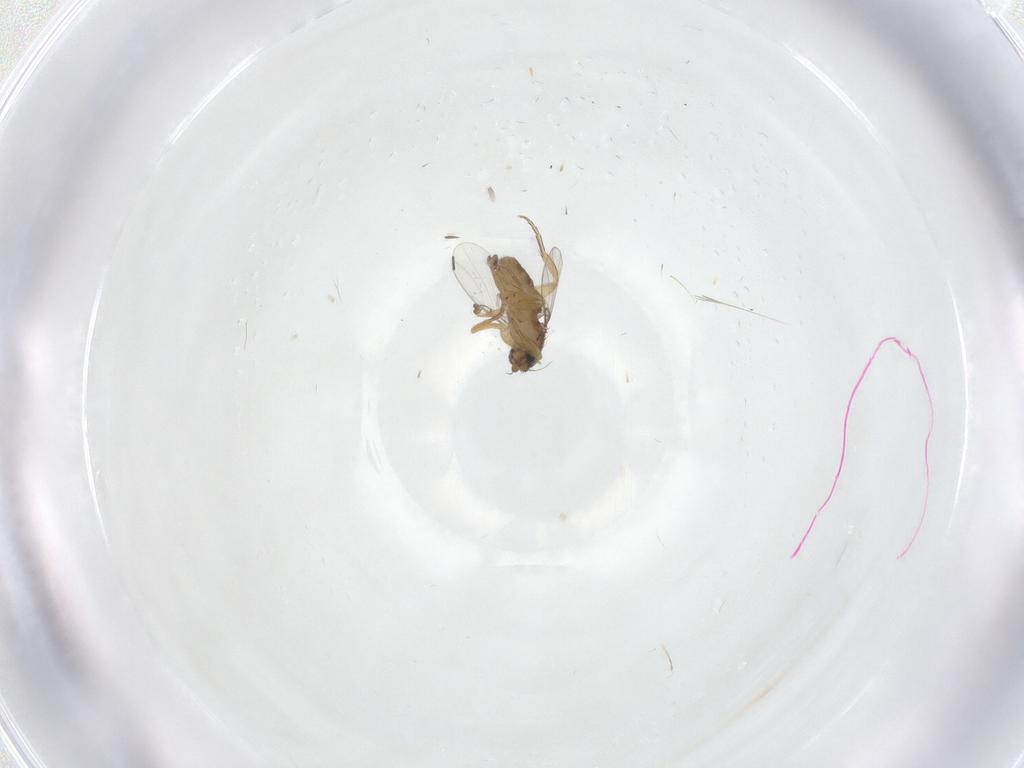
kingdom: Animalia
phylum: Arthropoda
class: Insecta
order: Diptera
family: Limoniidae
